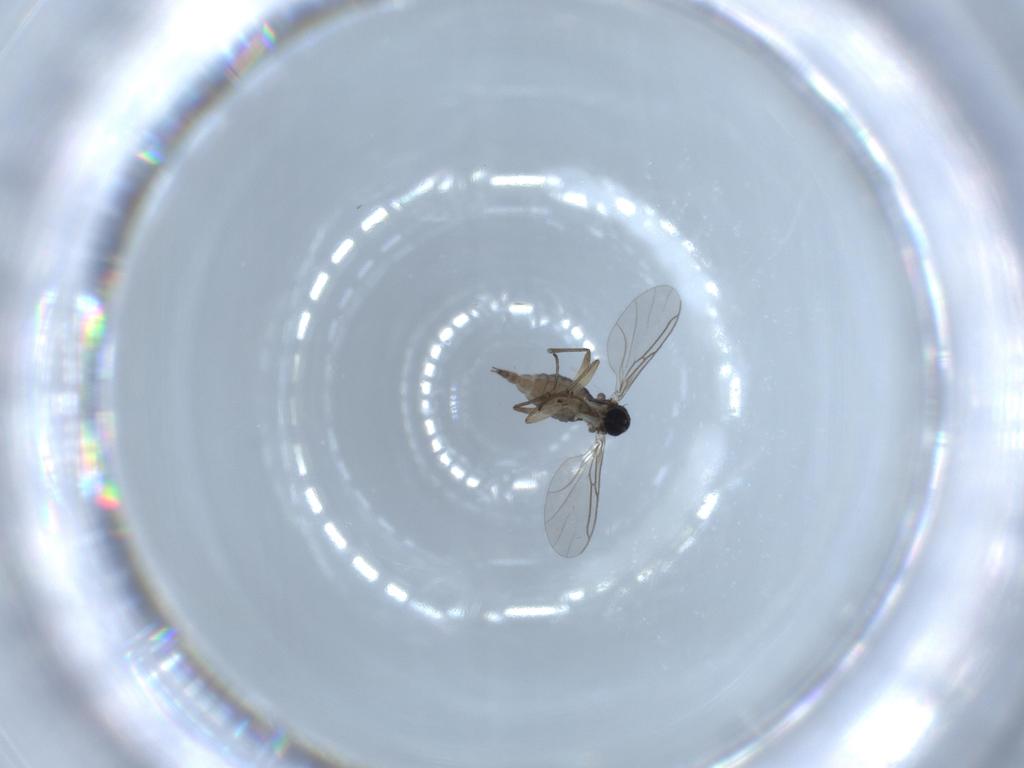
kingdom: Animalia
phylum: Arthropoda
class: Insecta
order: Diptera
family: Sciaridae
